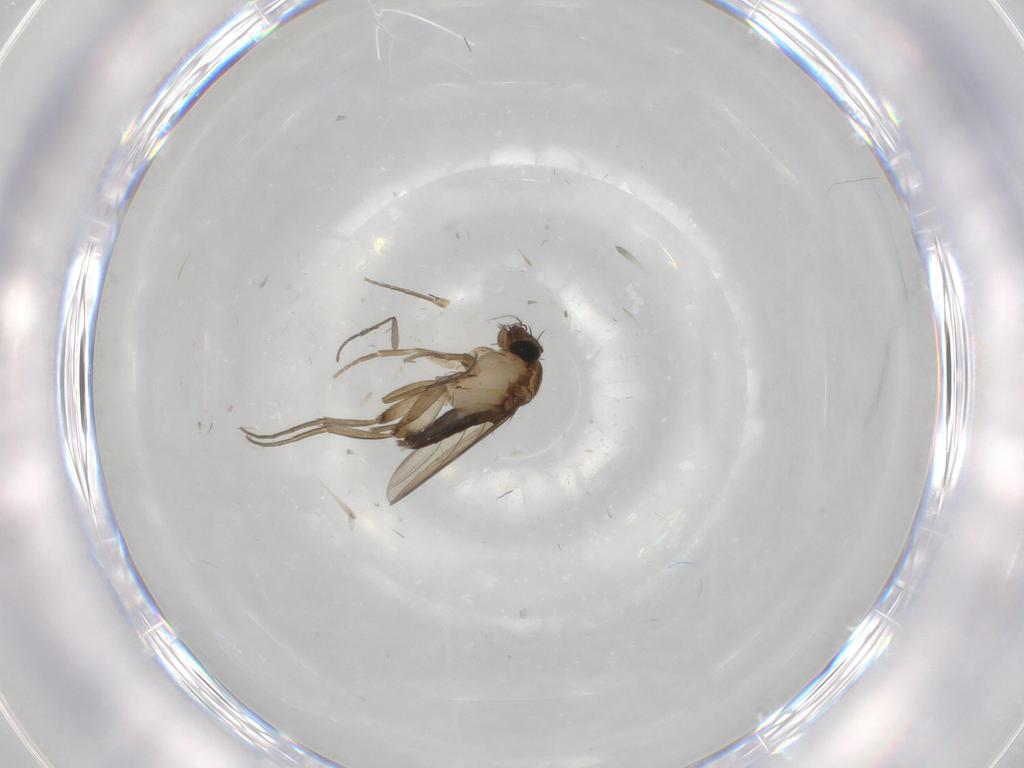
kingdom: Animalia
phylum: Arthropoda
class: Insecta
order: Diptera
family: Phoridae
